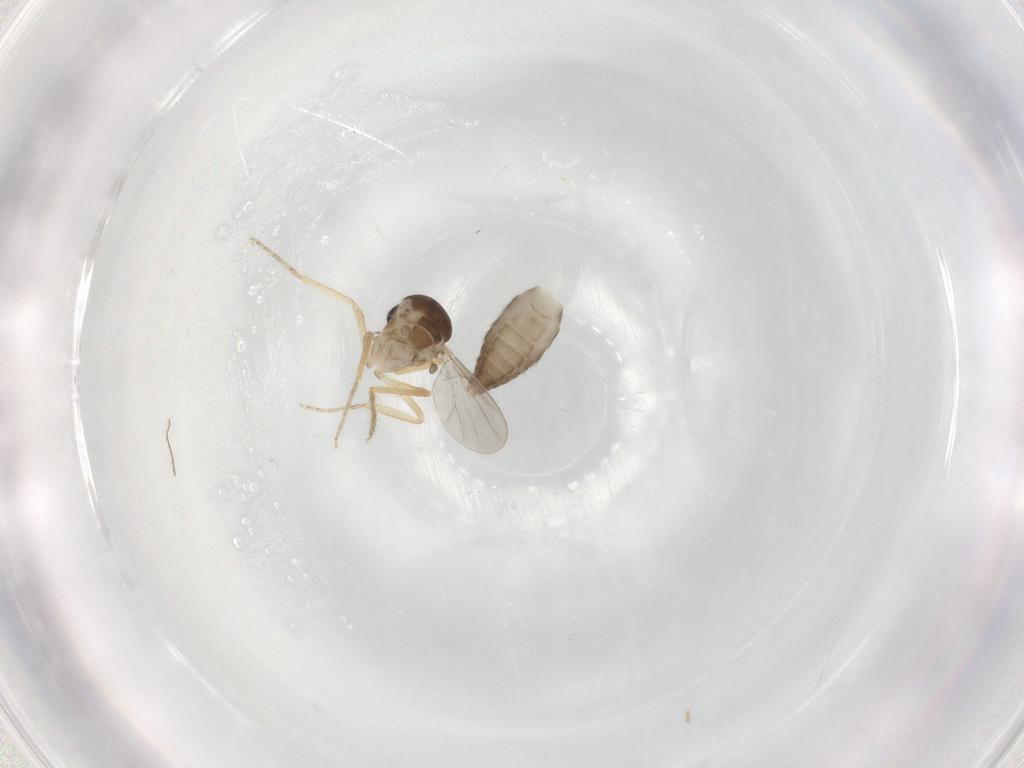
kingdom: Animalia
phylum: Arthropoda
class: Insecta
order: Diptera
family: Ceratopogonidae
